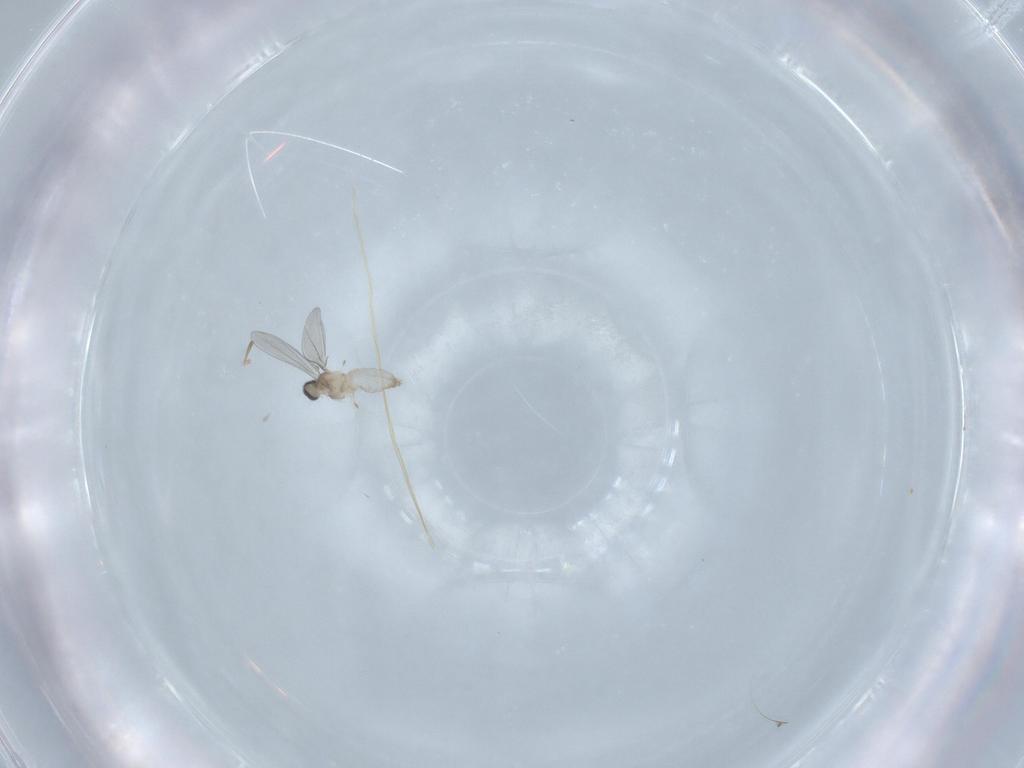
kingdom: Animalia
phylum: Arthropoda
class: Insecta
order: Diptera
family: Cecidomyiidae
